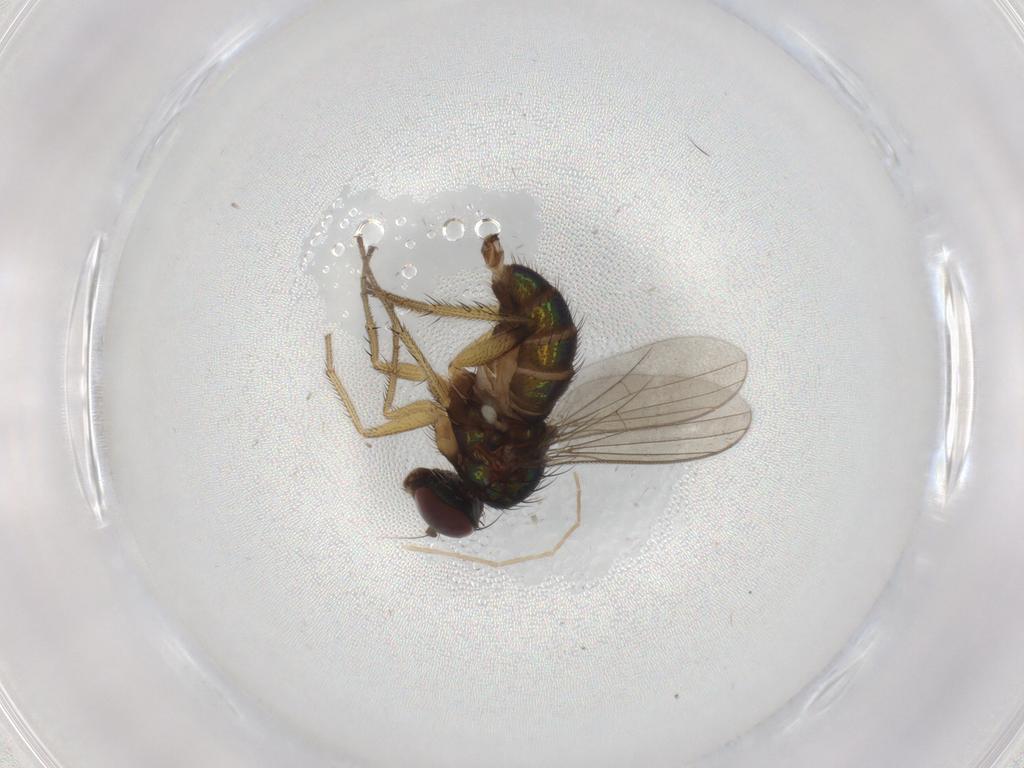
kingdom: Animalia
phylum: Arthropoda
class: Insecta
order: Diptera
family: Dolichopodidae
